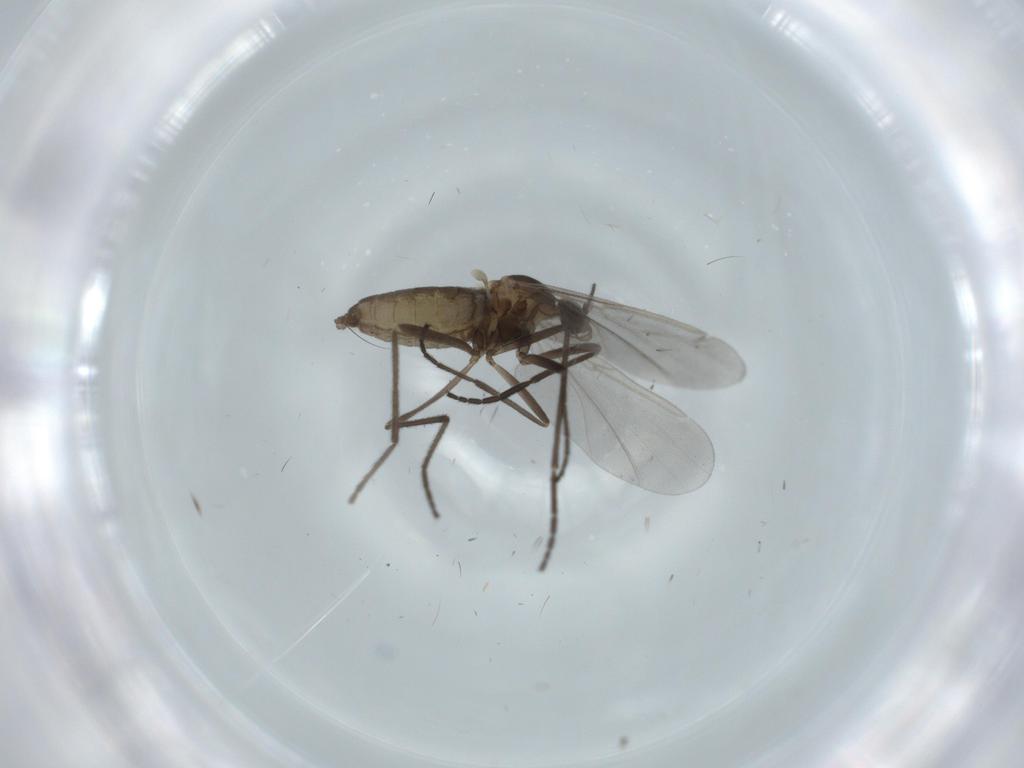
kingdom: Animalia
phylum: Arthropoda
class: Insecta
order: Diptera
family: Cecidomyiidae
